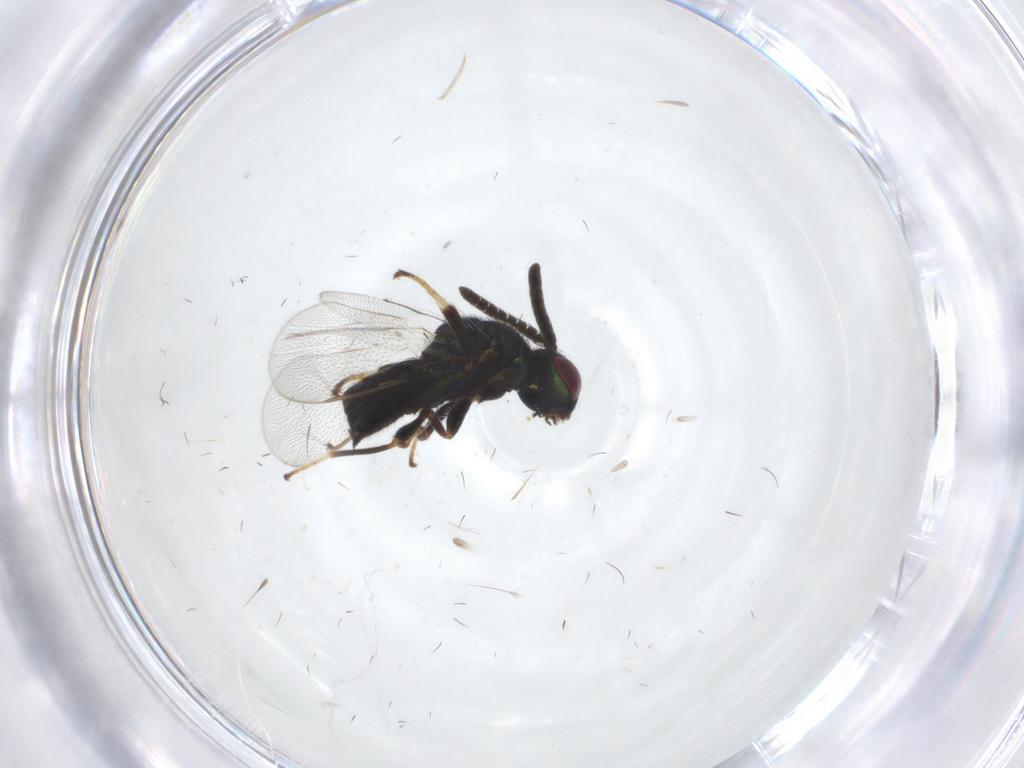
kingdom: Animalia
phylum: Arthropoda
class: Insecta
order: Hymenoptera
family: Torymidae
